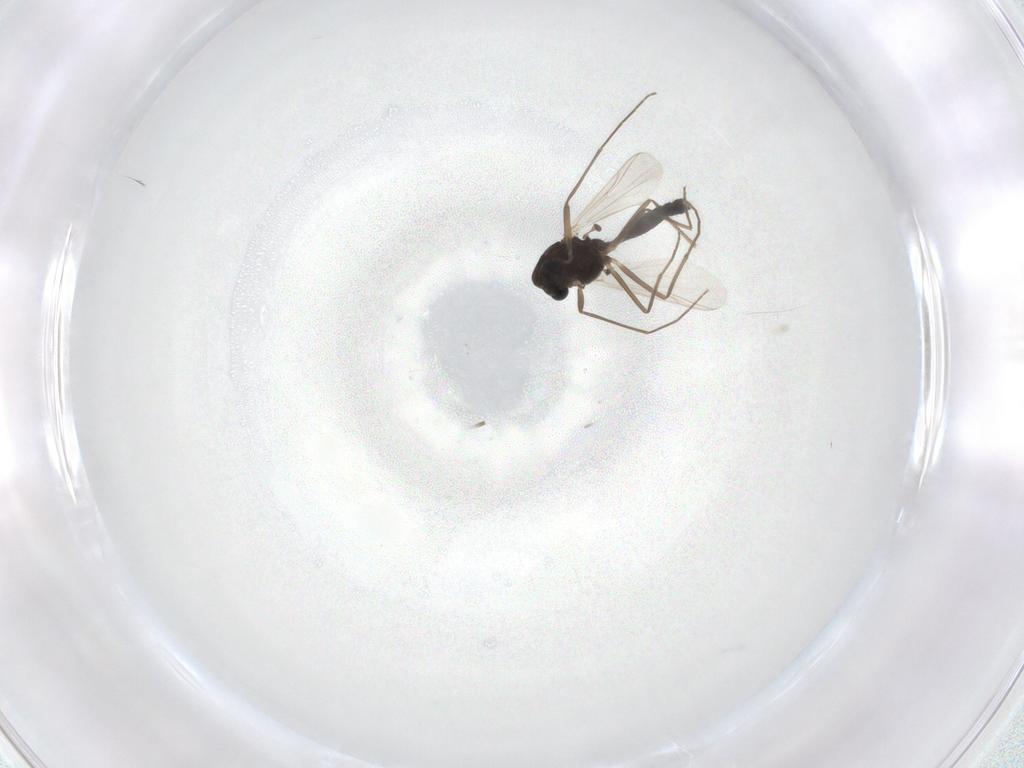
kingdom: Animalia
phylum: Arthropoda
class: Insecta
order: Diptera
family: Chironomidae
